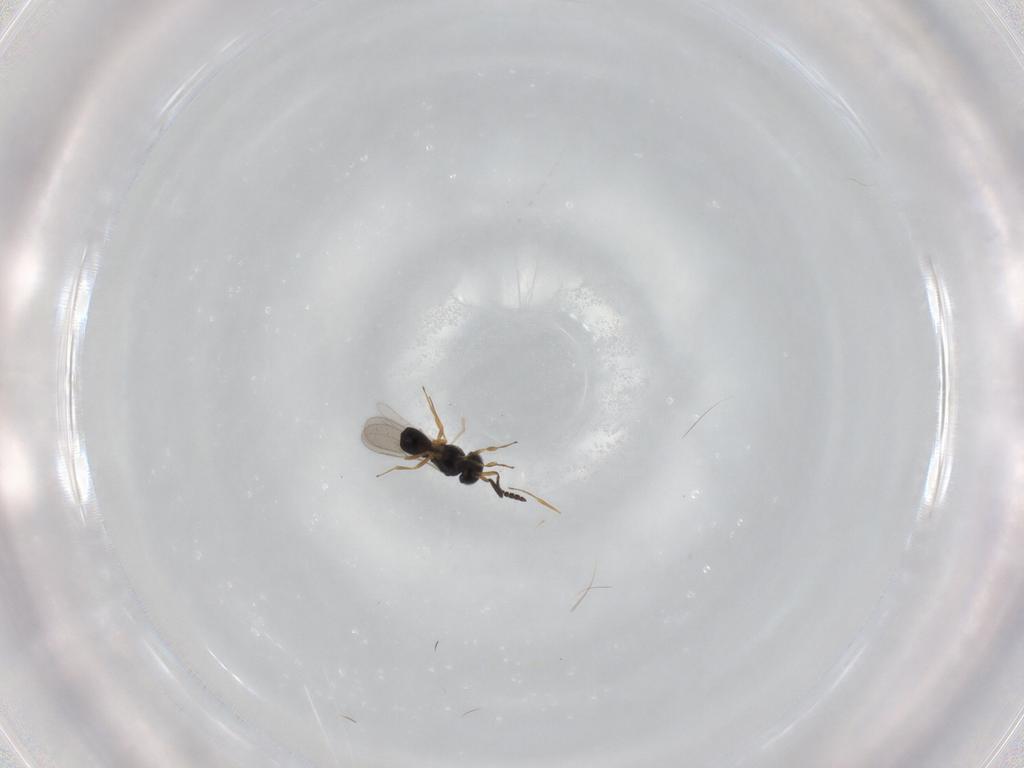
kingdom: Animalia
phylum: Arthropoda
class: Insecta
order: Hymenoptera
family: Scelionidae
